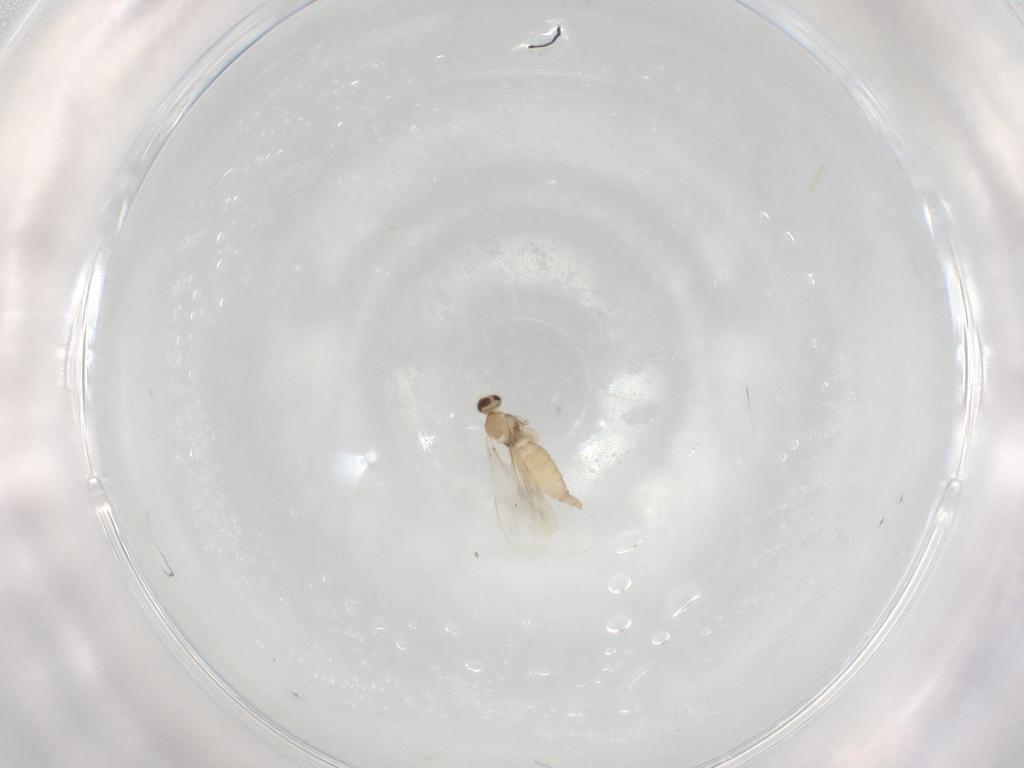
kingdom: Animalia
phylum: Arthropoda
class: Insecta
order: Diptera
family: Cecidomyiidae
